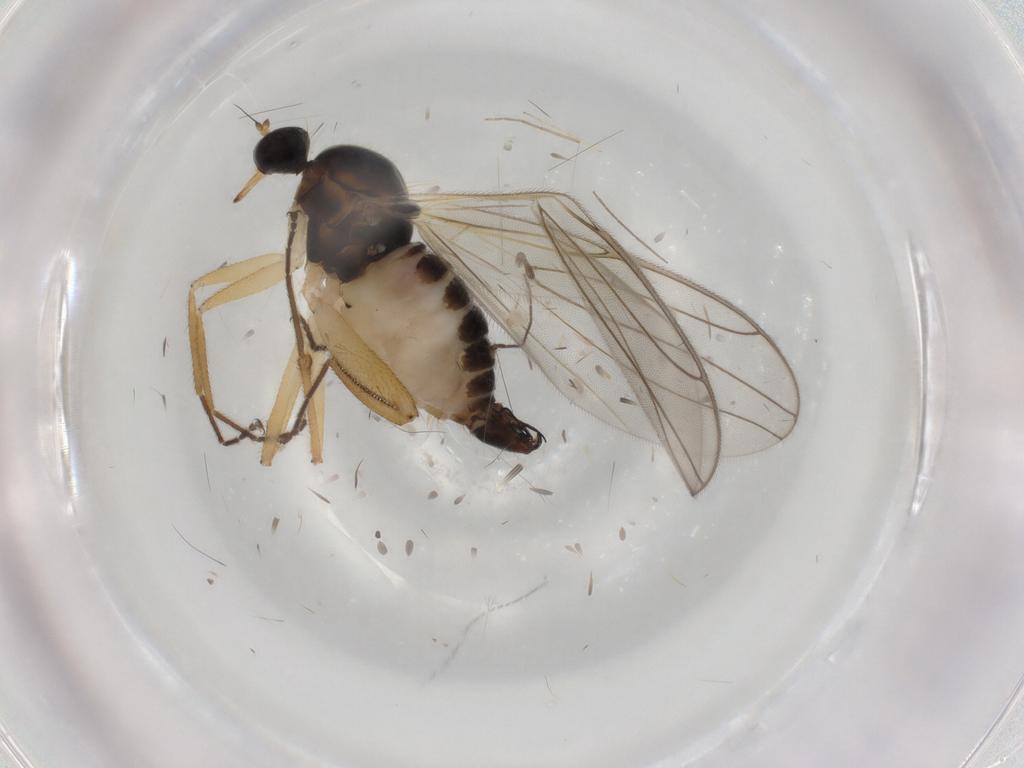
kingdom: Animalia
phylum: Arthropoda
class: Insecta
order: Diptera
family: Hybotidae
